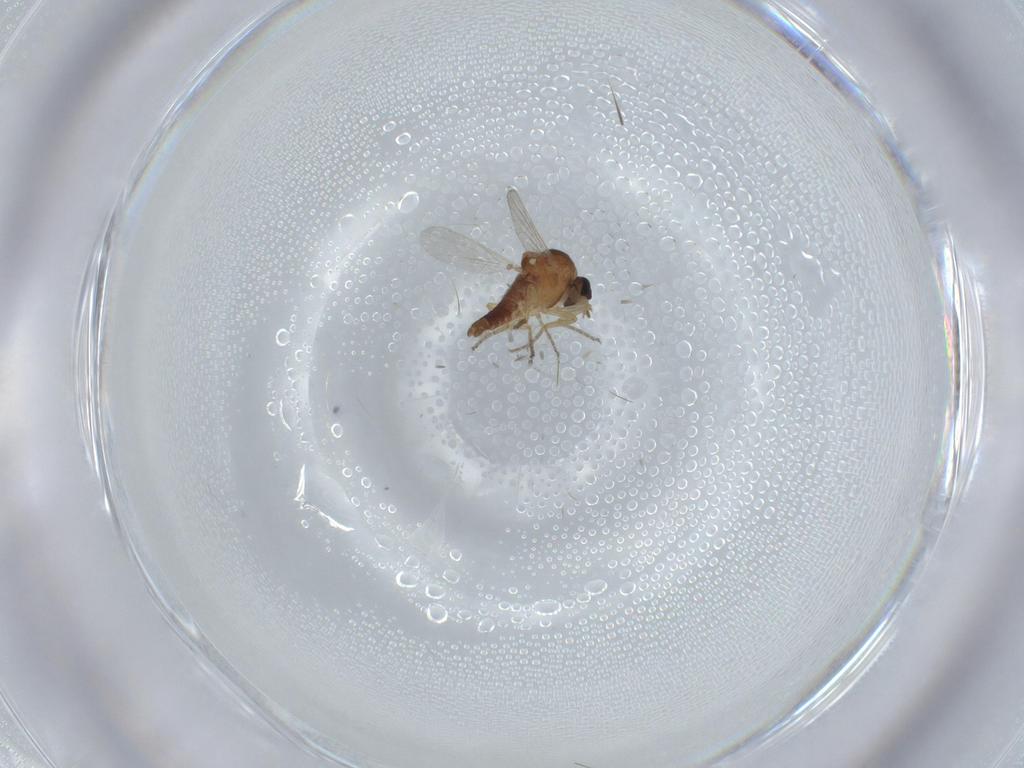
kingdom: Animalia
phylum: Arthropoda
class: Insecta
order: Diptera
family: Ceratopogonidae
